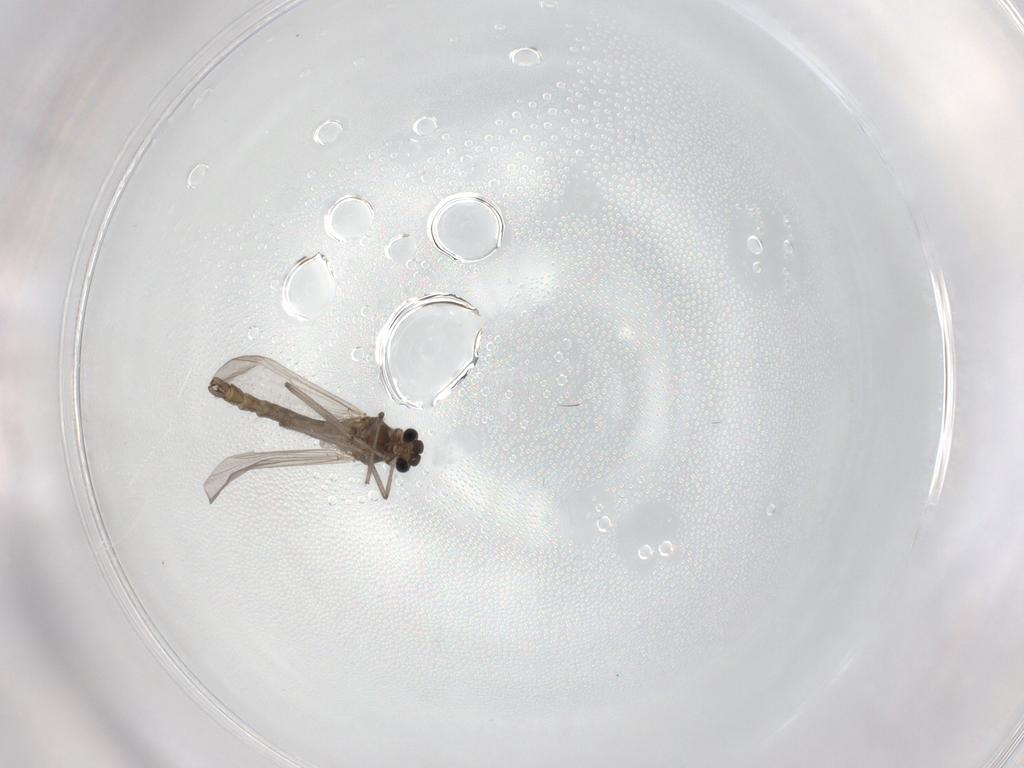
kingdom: Animalia
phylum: Arthropoda
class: Insecta
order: Diptera
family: Chironomidae
